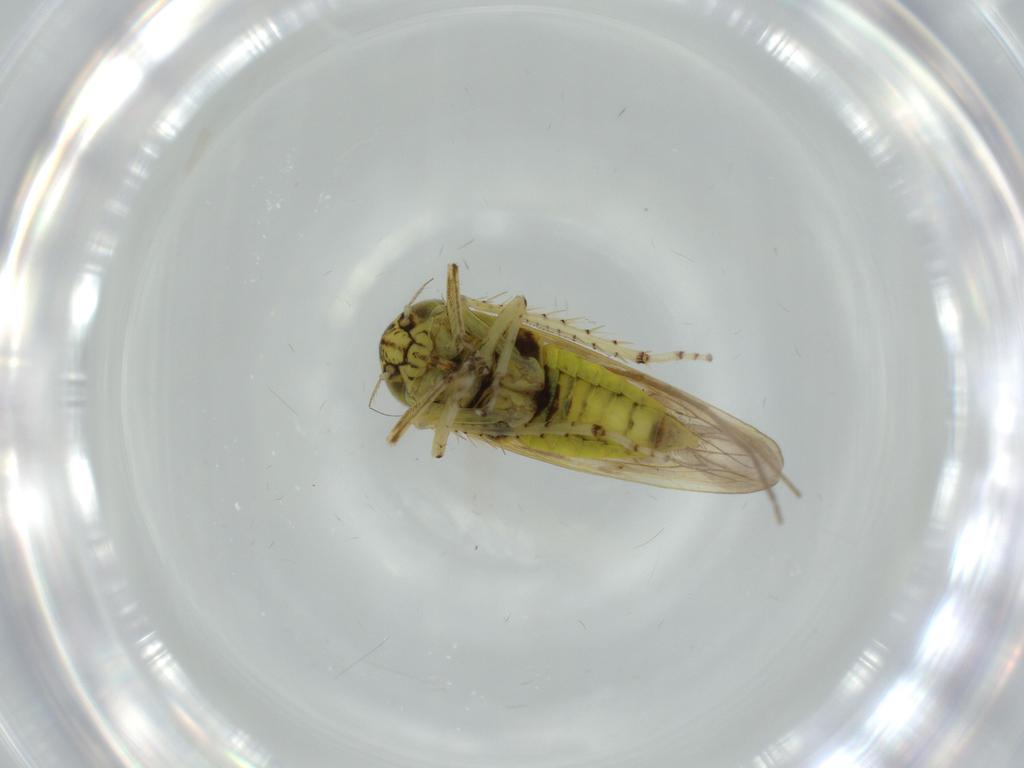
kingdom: Animalia
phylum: Arthropoda
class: Insecta
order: Hemiptera
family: Cicadellidae
